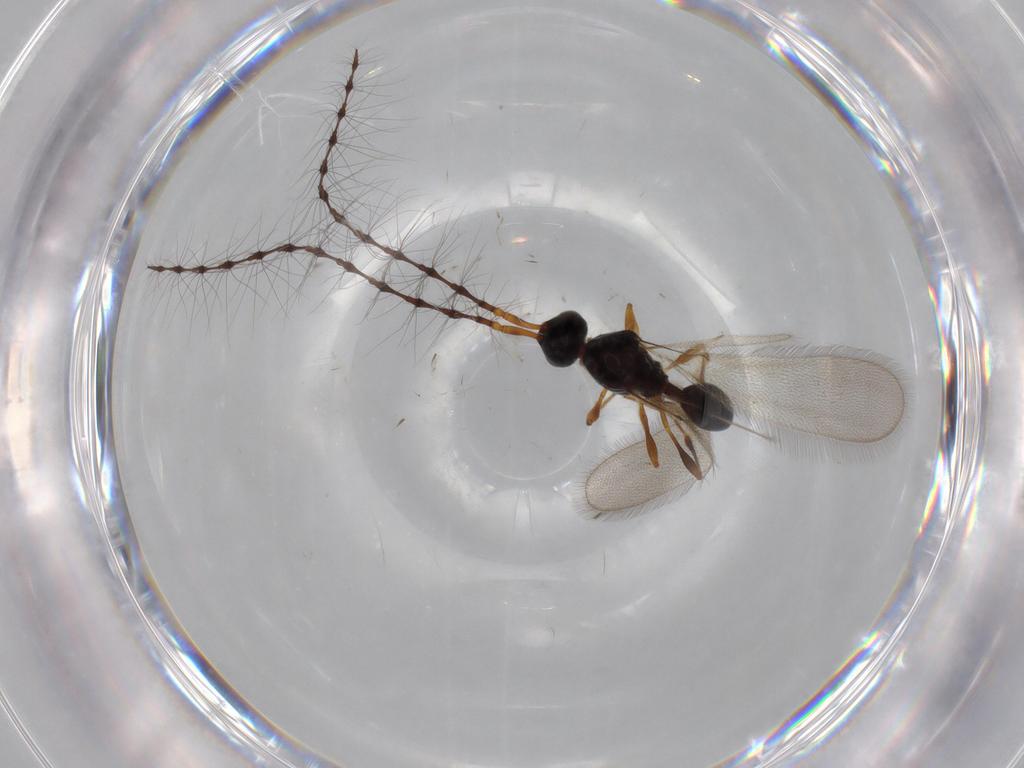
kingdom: Animalia
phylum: Arthropoda
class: Insecta
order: Hymenoptera
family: Diapriidae
